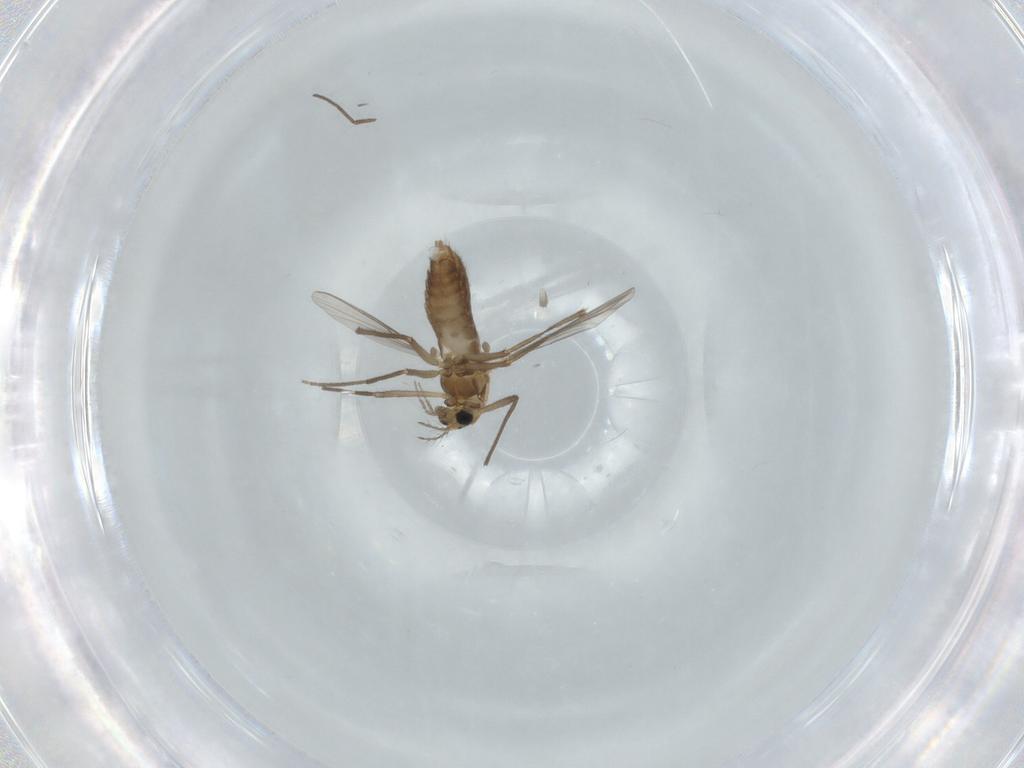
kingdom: Animalia
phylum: Arthropoda
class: Insecta
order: Diptera
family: Chironomidae
